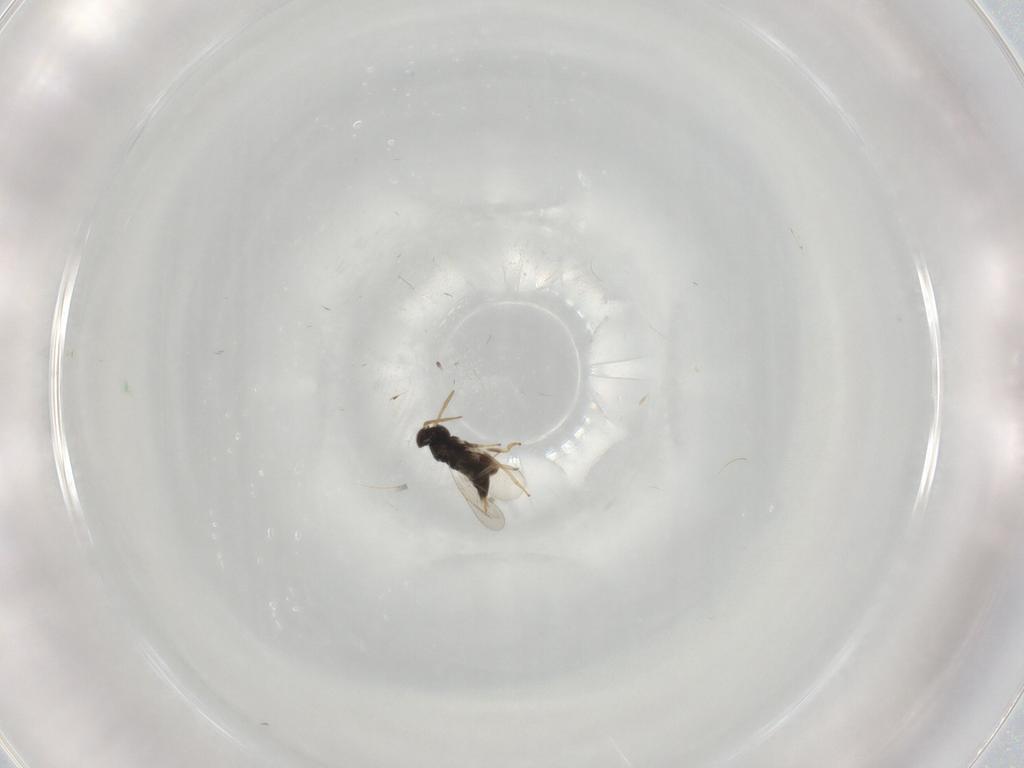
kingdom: Animalia
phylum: Arthropoda
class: Insecta
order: Hymenoptera
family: Aphelinidae
